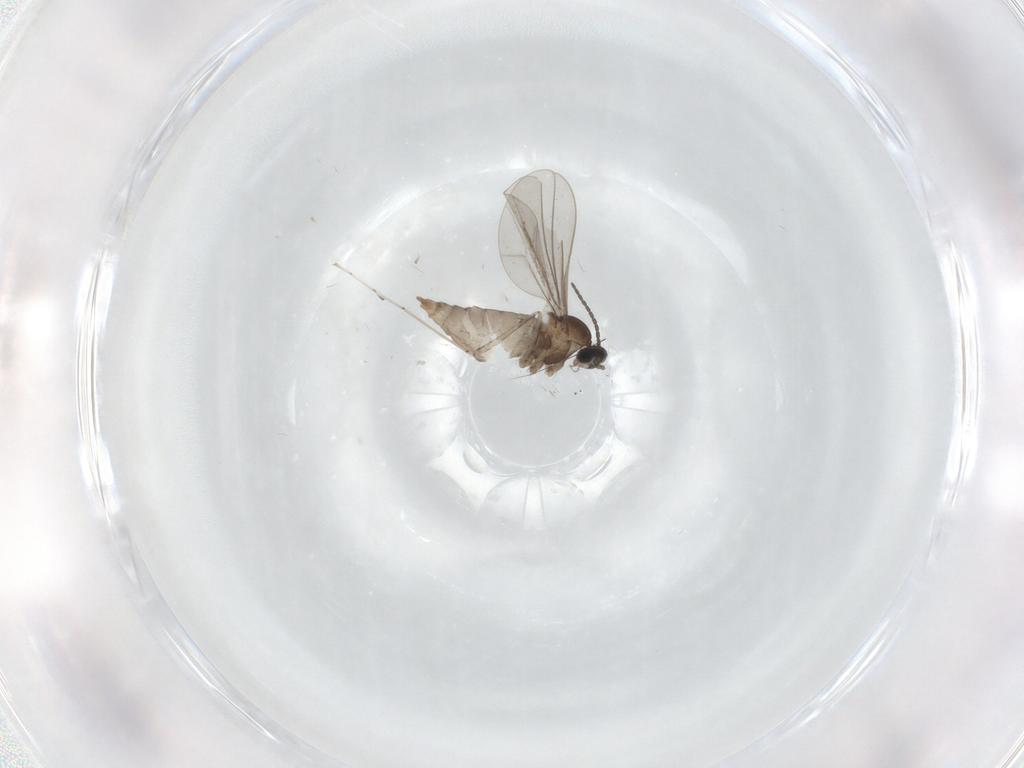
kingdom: Animalia
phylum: Arthropoda
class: Insecta
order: Diptera
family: Cecidomyiidae
